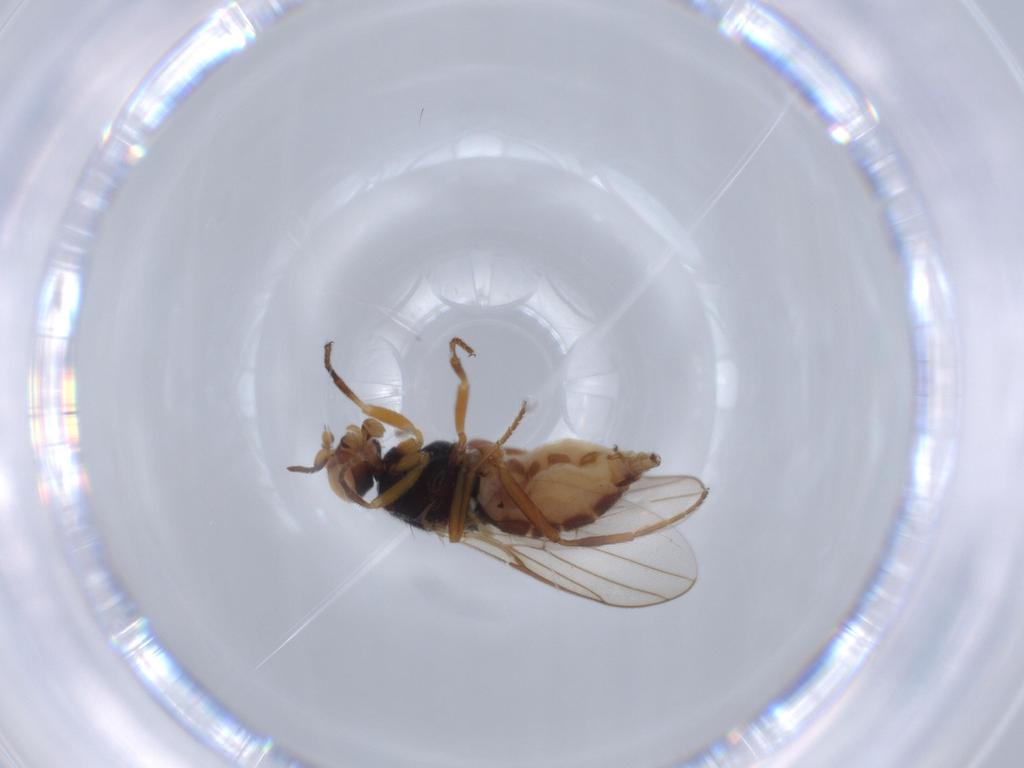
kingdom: Animalia
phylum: Arthropoda
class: Insecta
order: Diptera
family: Chloropidae
